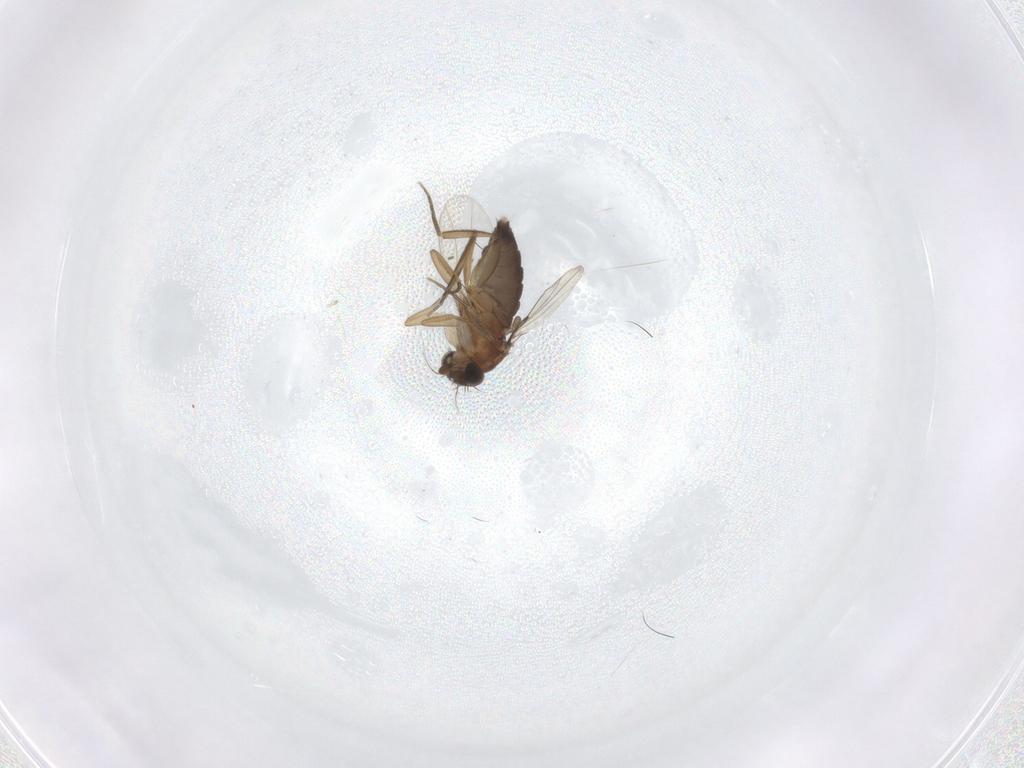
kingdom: Animalia
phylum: Arthropoda
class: Insecta
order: Diptera
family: Phoridae
